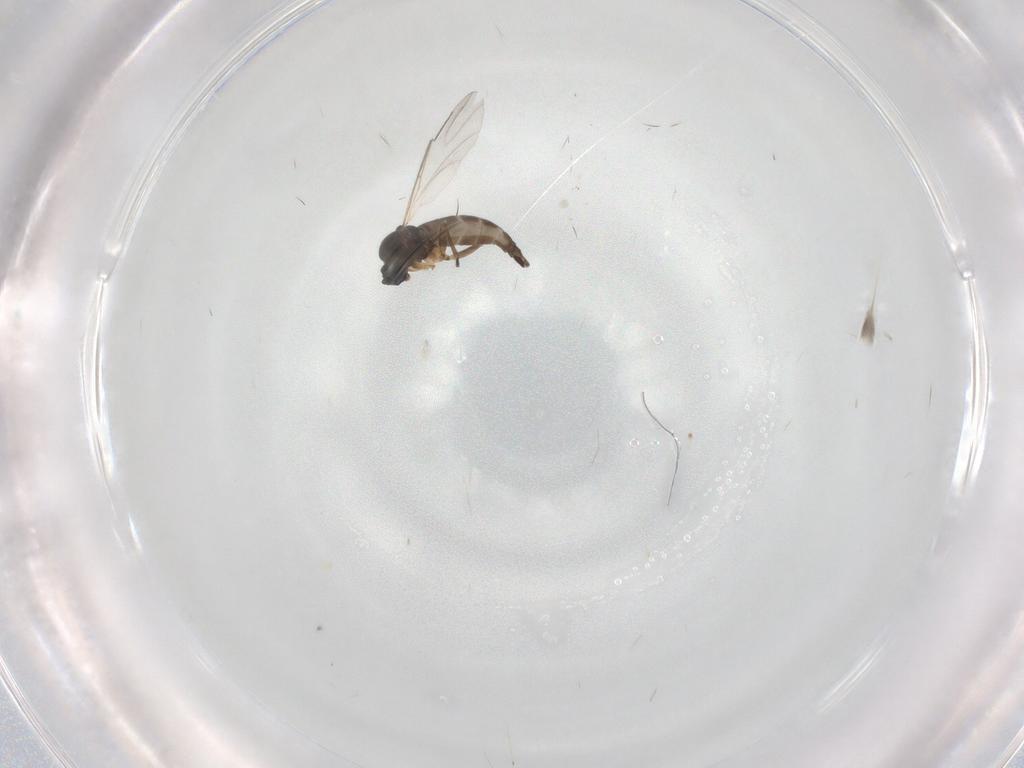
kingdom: Animalia
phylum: Arthropoda
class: Insecta
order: Diptera
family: Sciaridae
